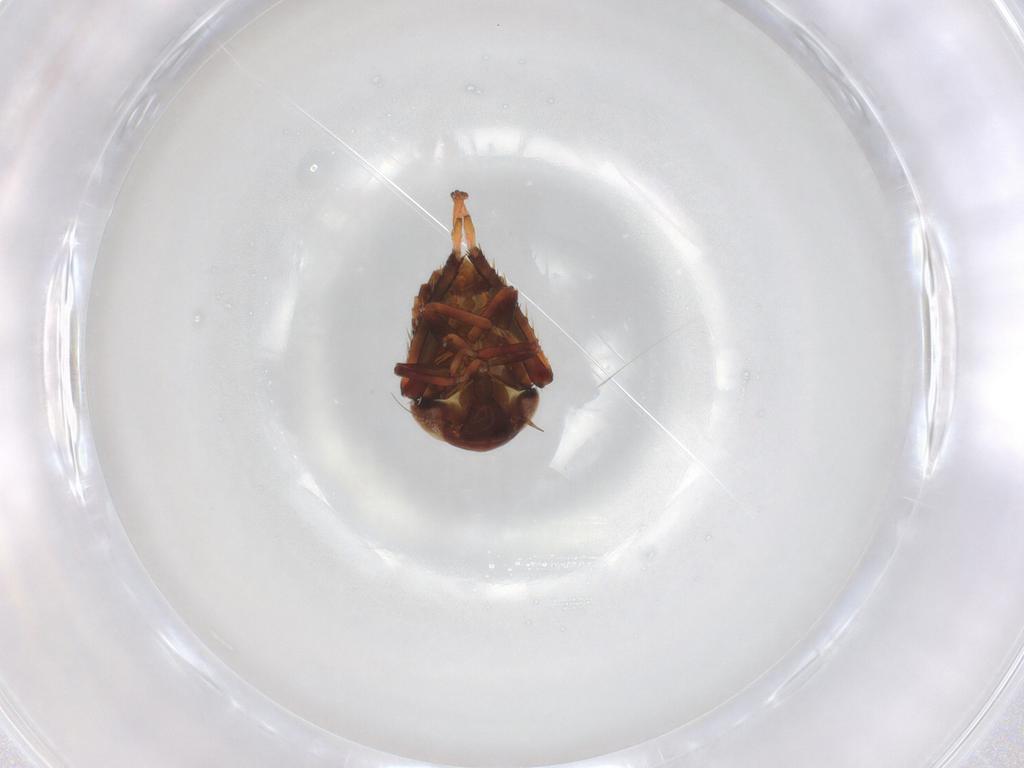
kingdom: Animalia
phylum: Arthropoda
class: Insecta
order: Hemiptera
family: Cicadellidae
